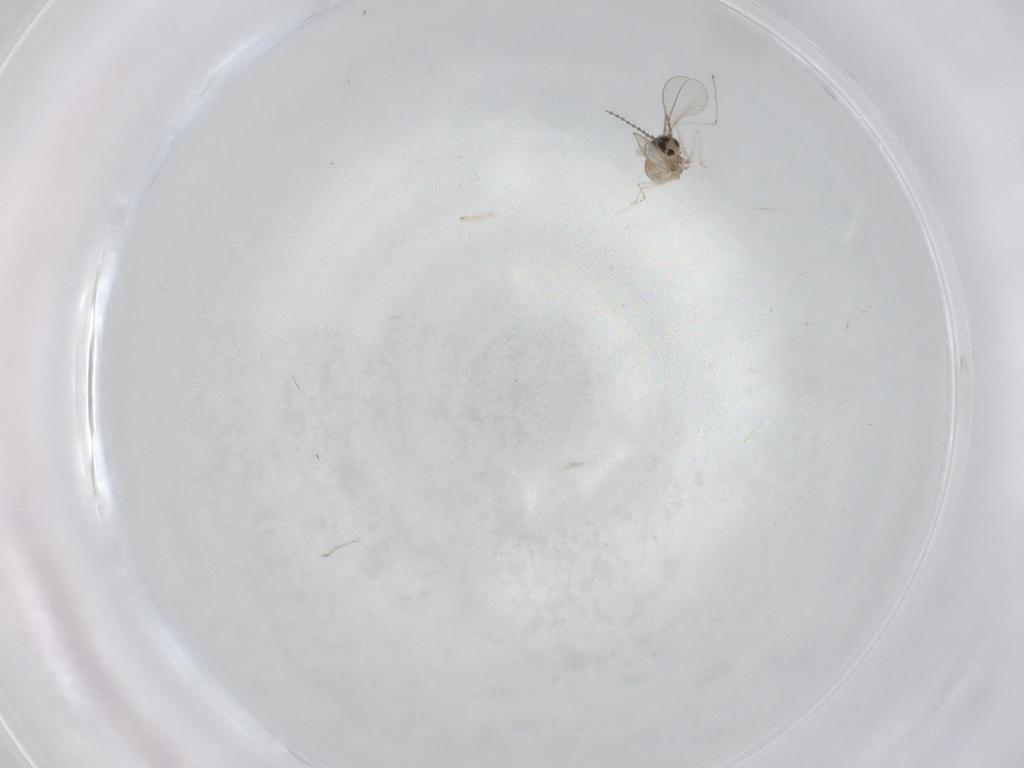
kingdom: Animalia
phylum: Arthropoda
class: Insecta
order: Diptera
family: Cecidomyiidae
